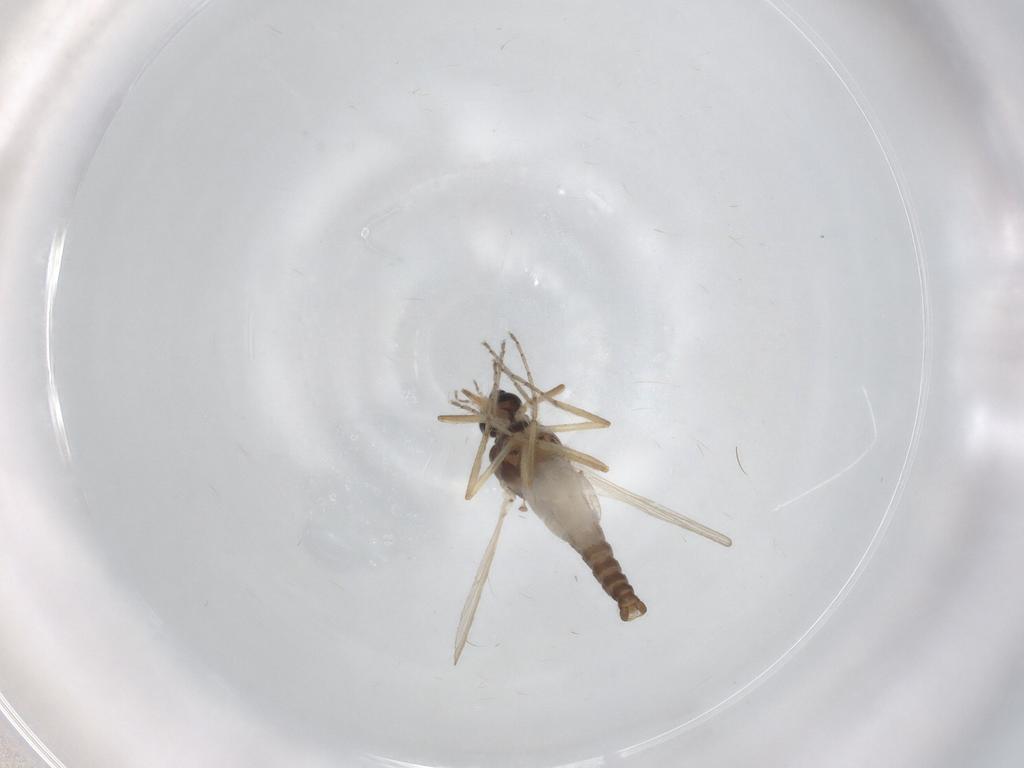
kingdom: Animalia
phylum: Arthropoda
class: Insecta
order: Diptera
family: Ceratopogonidae
